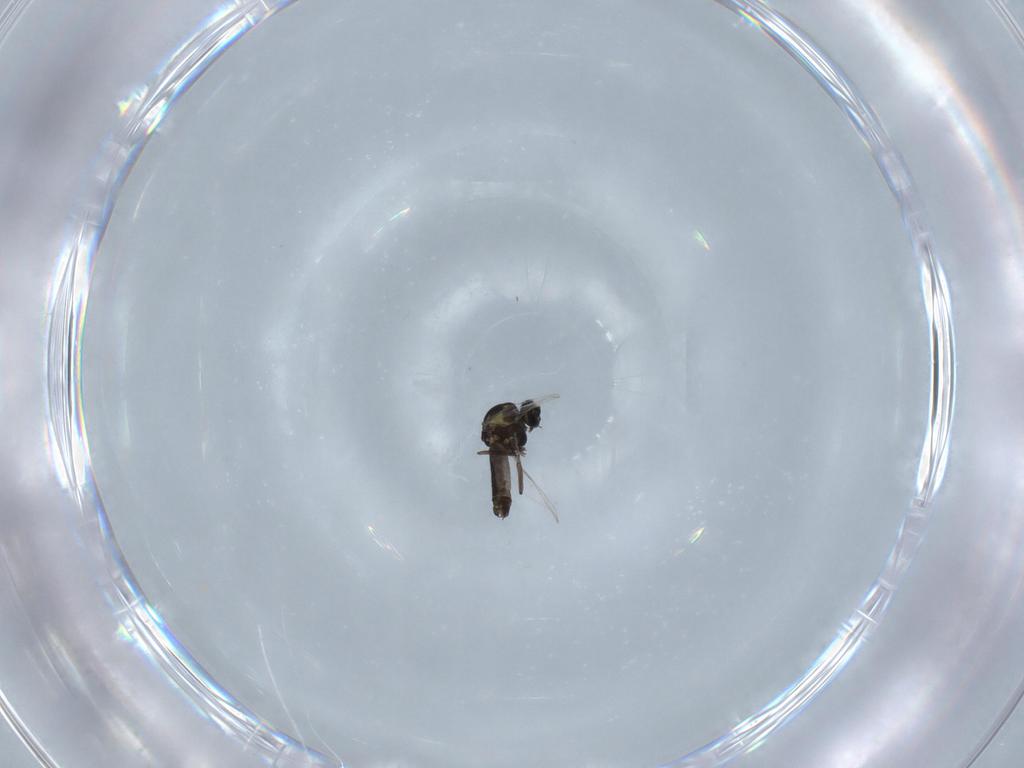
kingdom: Animalia
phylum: Arthropoda
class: Insecta
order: Diptera
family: Ceratopogonidae
